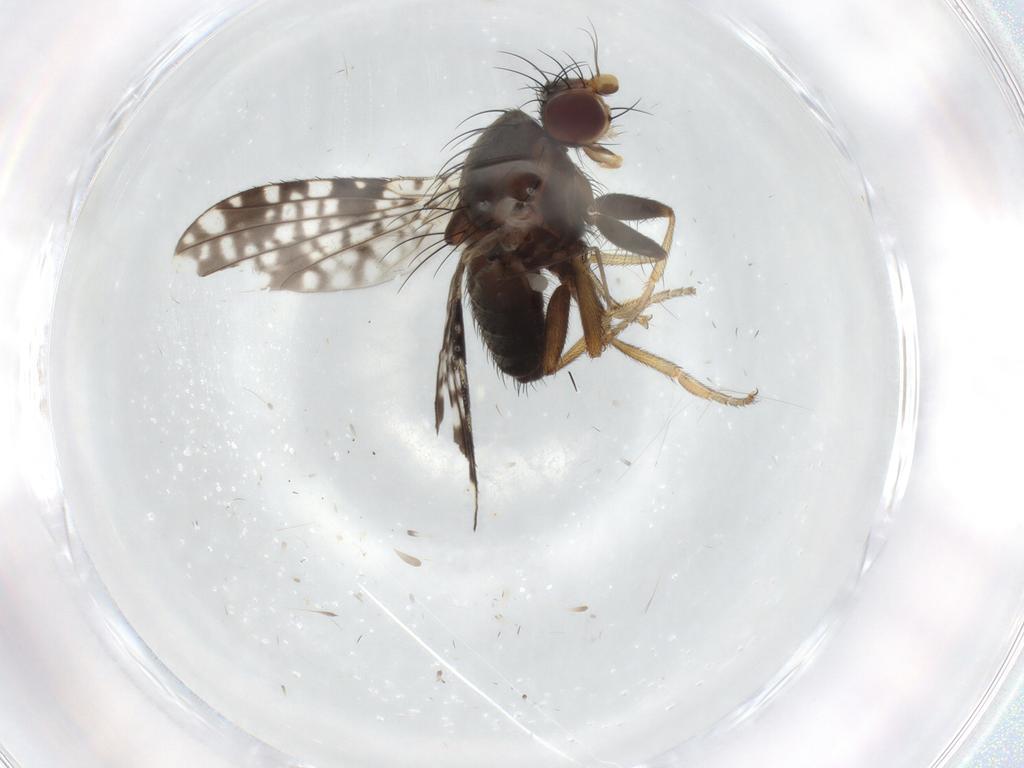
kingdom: Animalia
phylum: Arthropoda
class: Insecta
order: Diptera
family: Tephritidae
